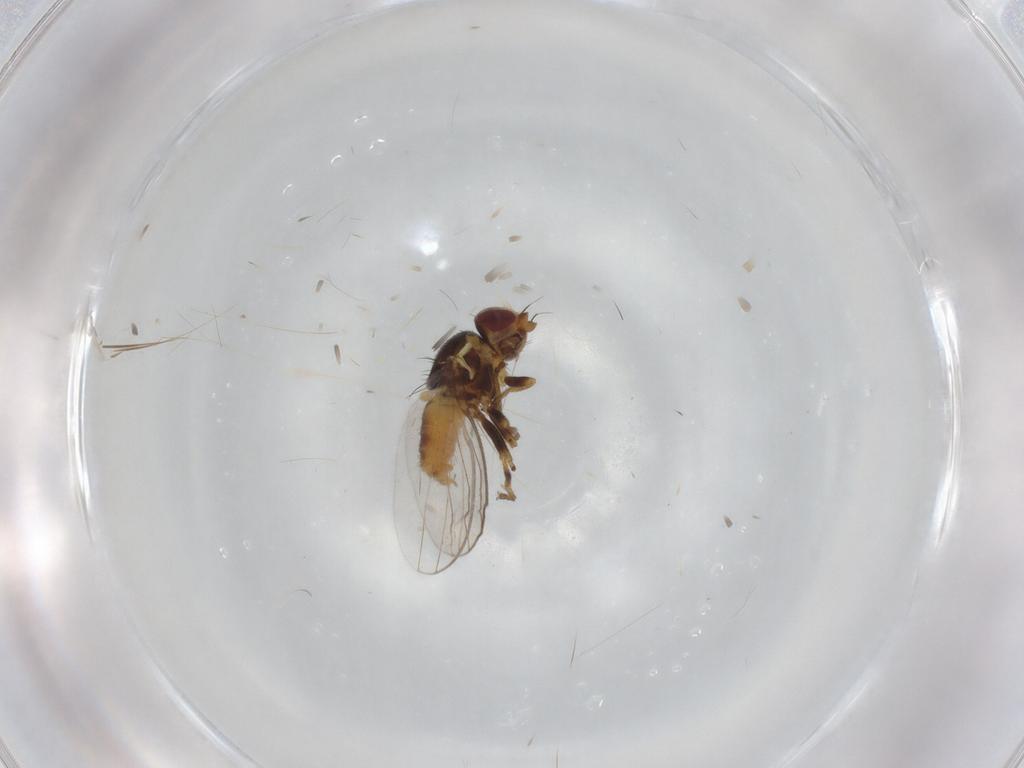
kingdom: Animalia
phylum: Arthropoda
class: Insecta
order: Diptera
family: Chloropidae
